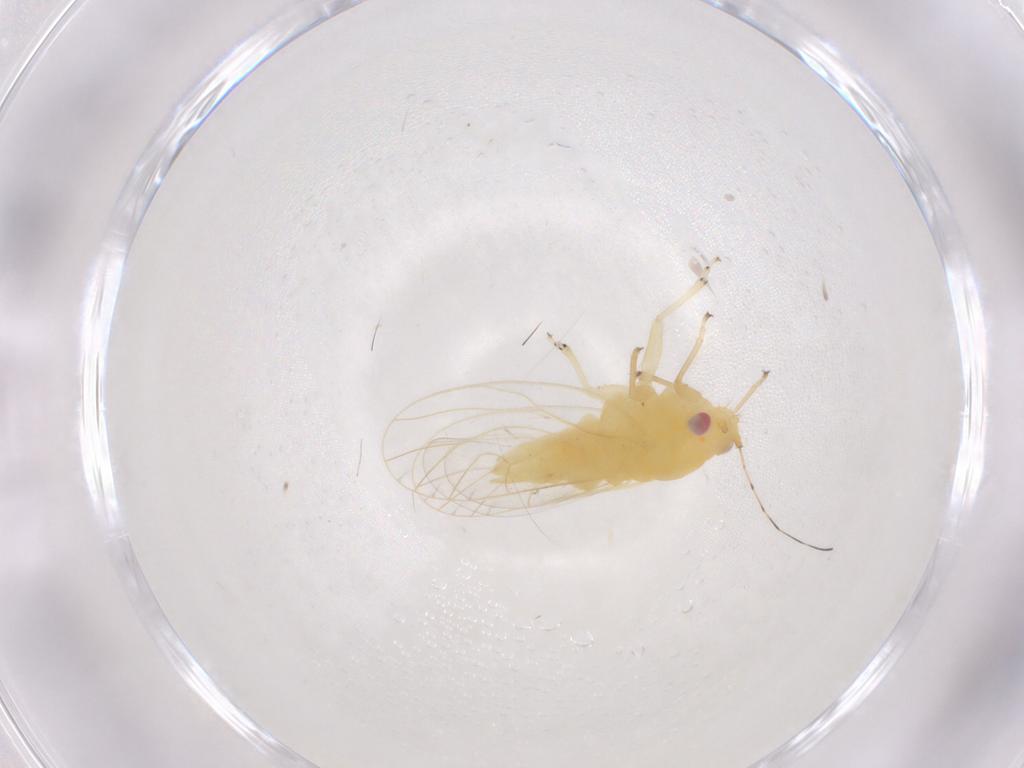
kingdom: Animalia
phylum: Arthropoda
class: Insecta
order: Hemiptera
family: Psyllidae
